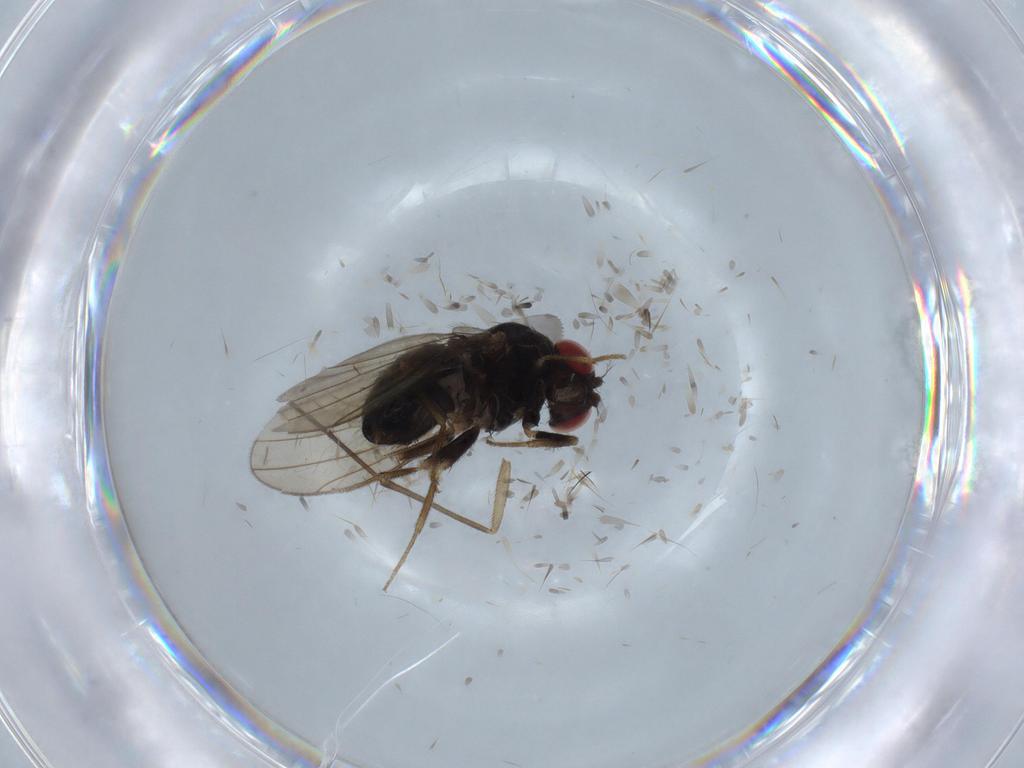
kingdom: Animalia
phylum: Arthropoda
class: Insecta
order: Diptera
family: Drosophilidae
